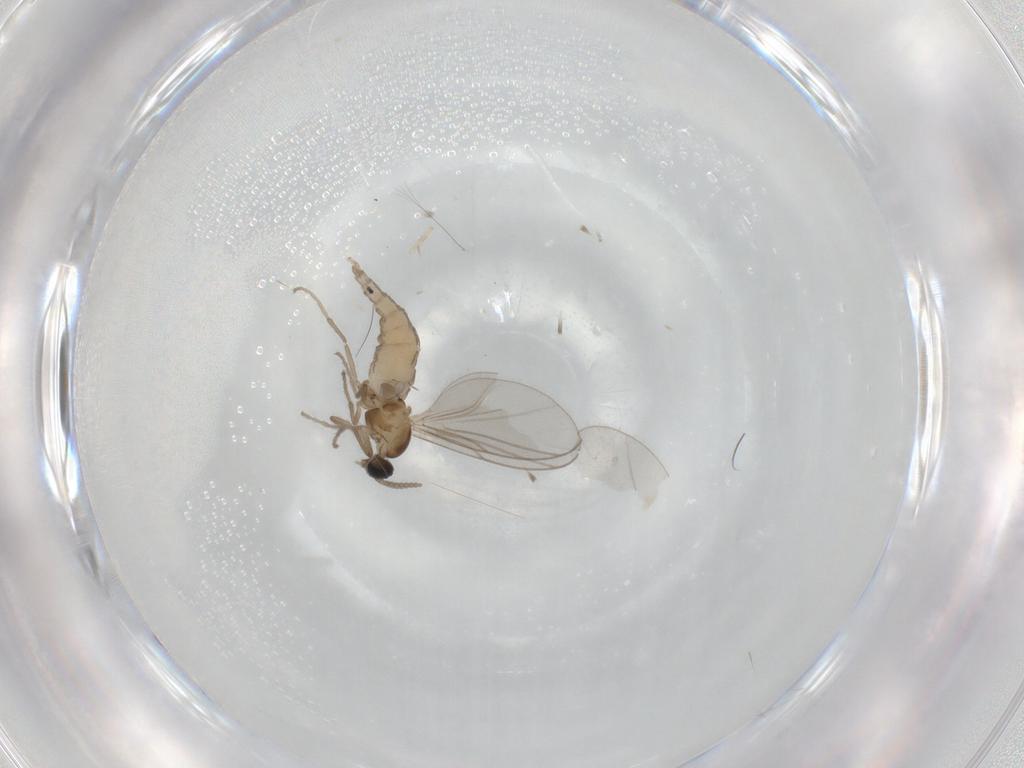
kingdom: Animalia
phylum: Arthropoda
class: Insecta
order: Diptera
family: Cecidomyiidae
